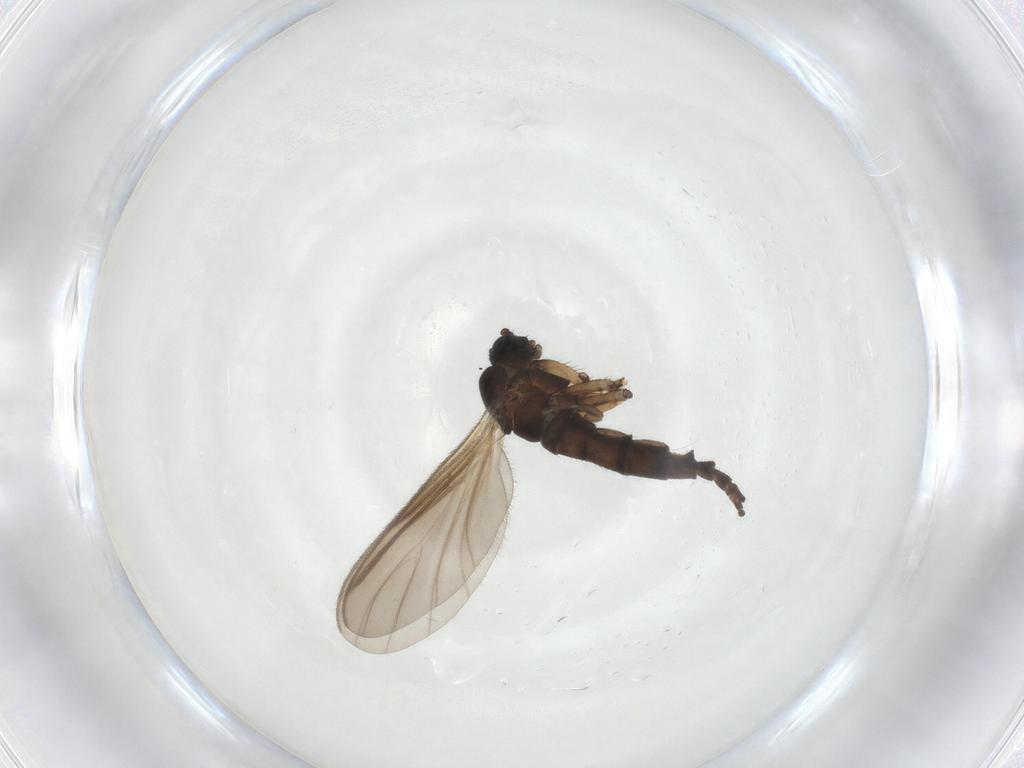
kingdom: Animalia
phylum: Arthropoda
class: Insecta
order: Diptera
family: Sciaridae
